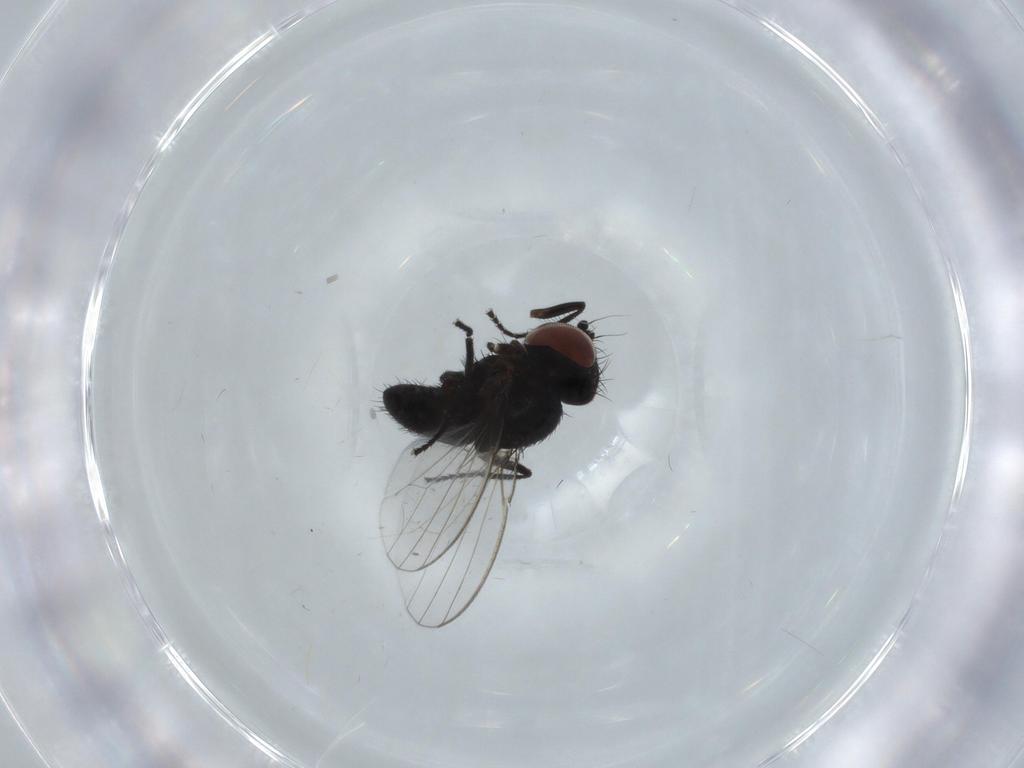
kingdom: Animalia
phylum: Arthropoda
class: Insecta
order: Diptera
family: Milichiidae
